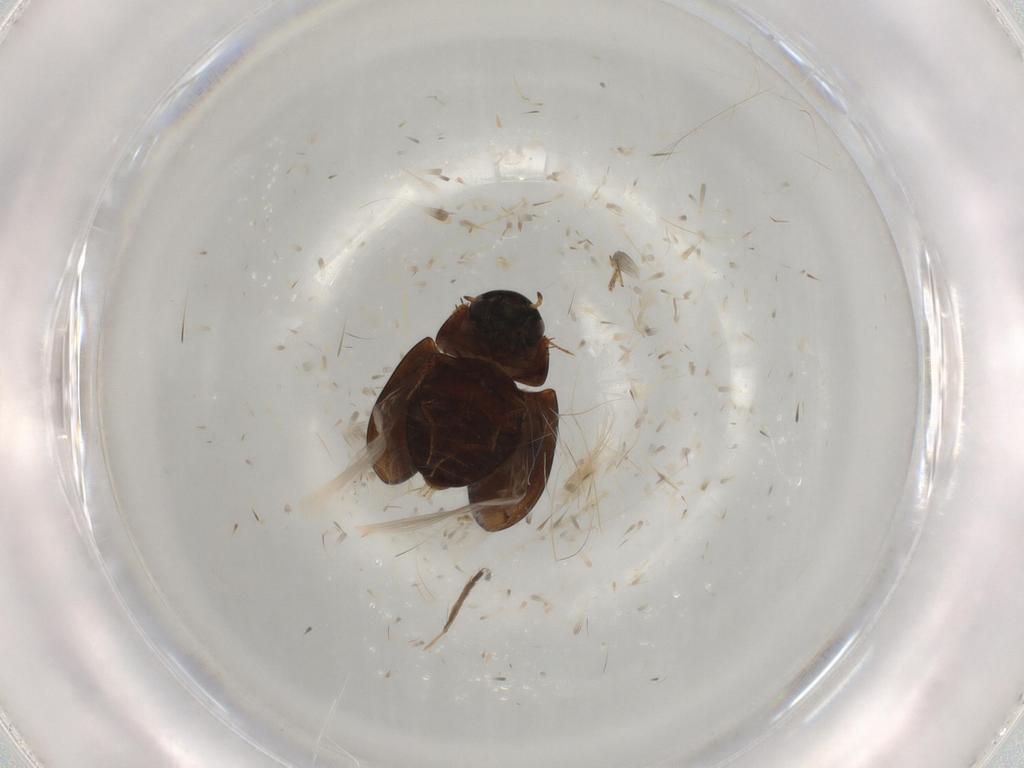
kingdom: Animalia
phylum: Arthropoda
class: Insecta
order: Coleoptera
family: Hydrophilidae
